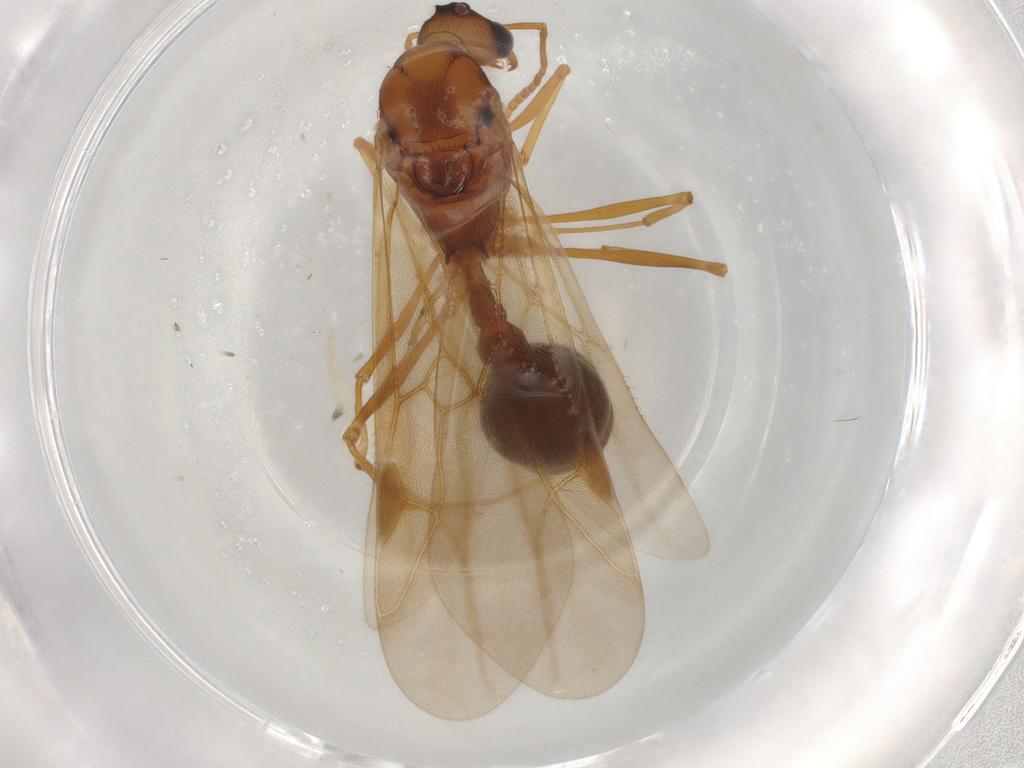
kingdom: Animalia
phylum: Arthropoda
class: Insecta
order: Hymenoptera
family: Formicidae
